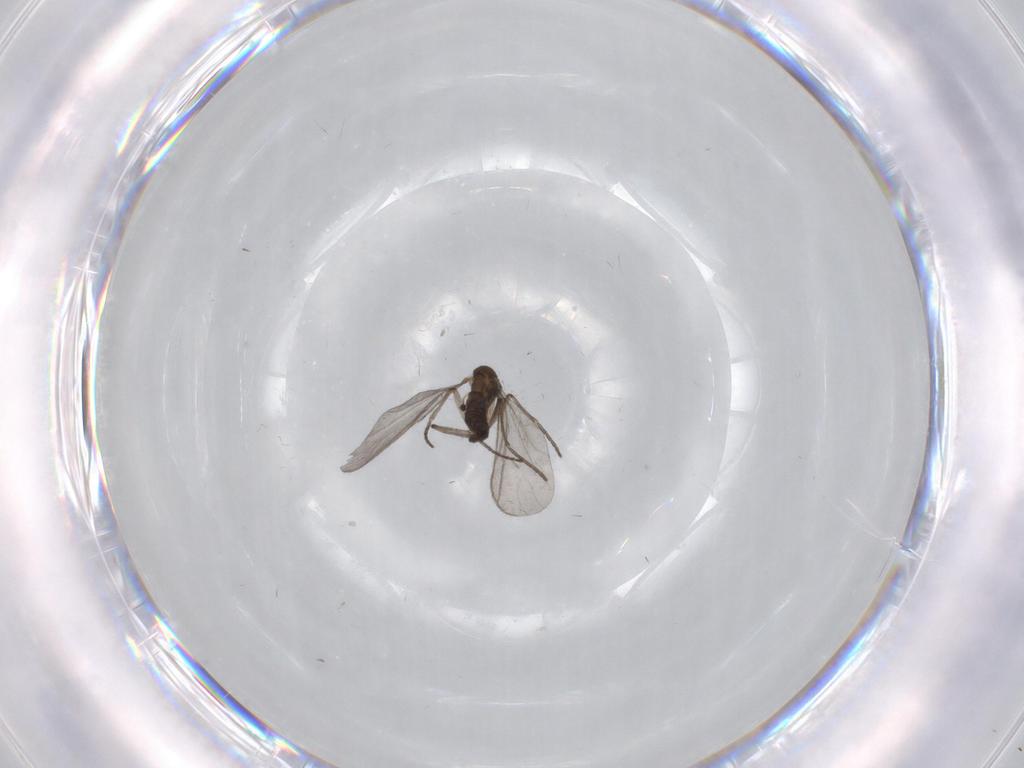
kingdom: Animalia
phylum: Arthropoda
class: Insecta
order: Diptera
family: Sciaridae
